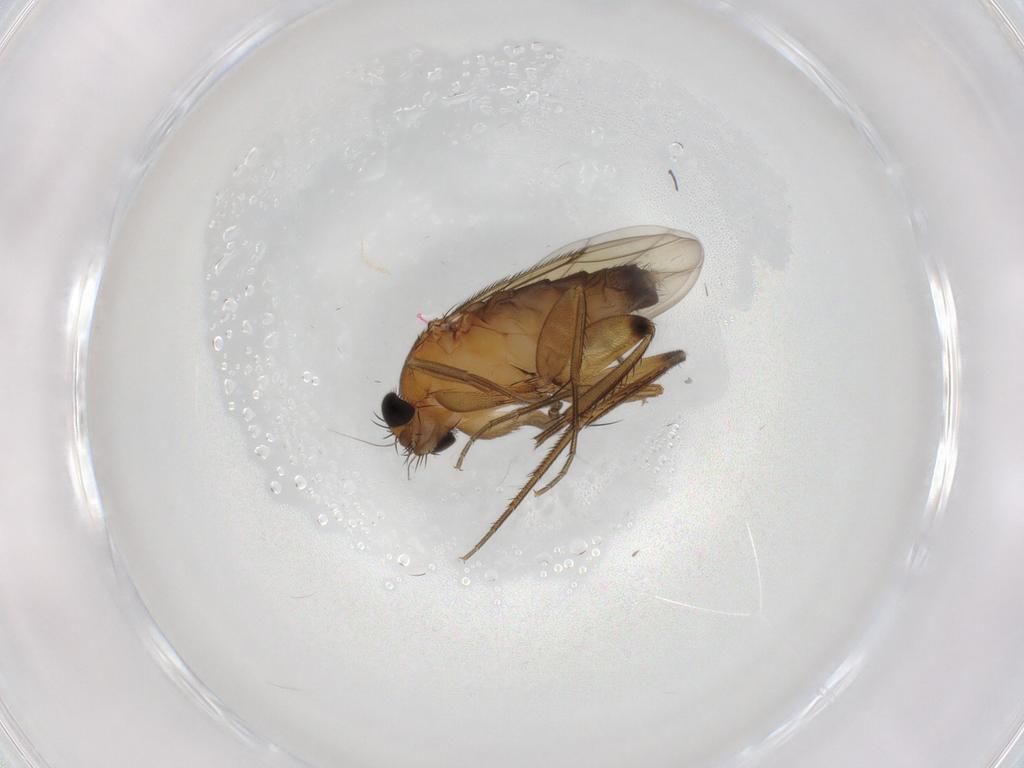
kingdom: Animalia
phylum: Arthropoda
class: Insecta
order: Diptera
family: Phoridae
